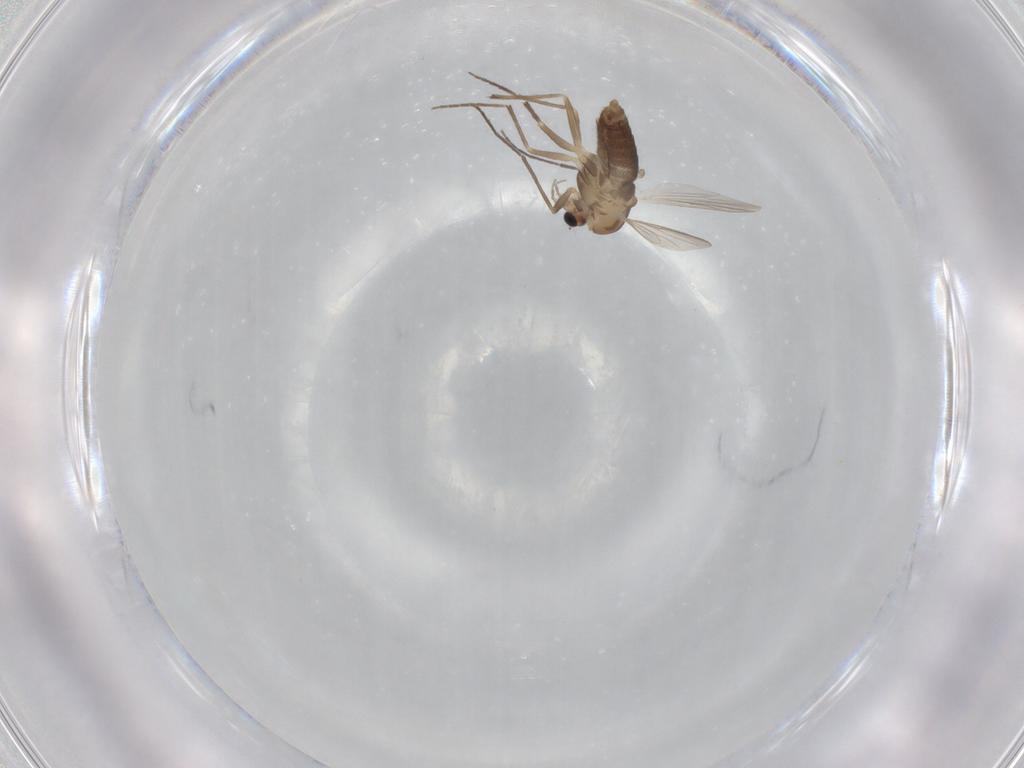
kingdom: Animalia
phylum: Arthropoda
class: Insecta
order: Diptera
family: Chironomidae
